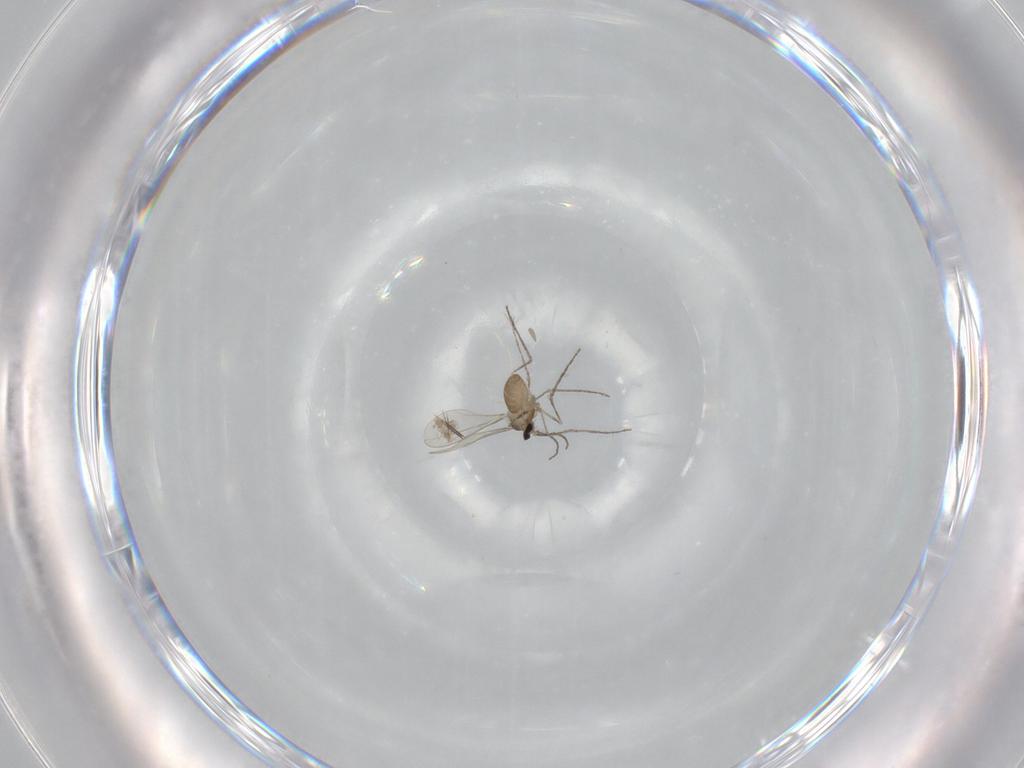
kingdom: Animalia
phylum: Arthropoda
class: Insecta
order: Diptera
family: Cecidomyiidae
